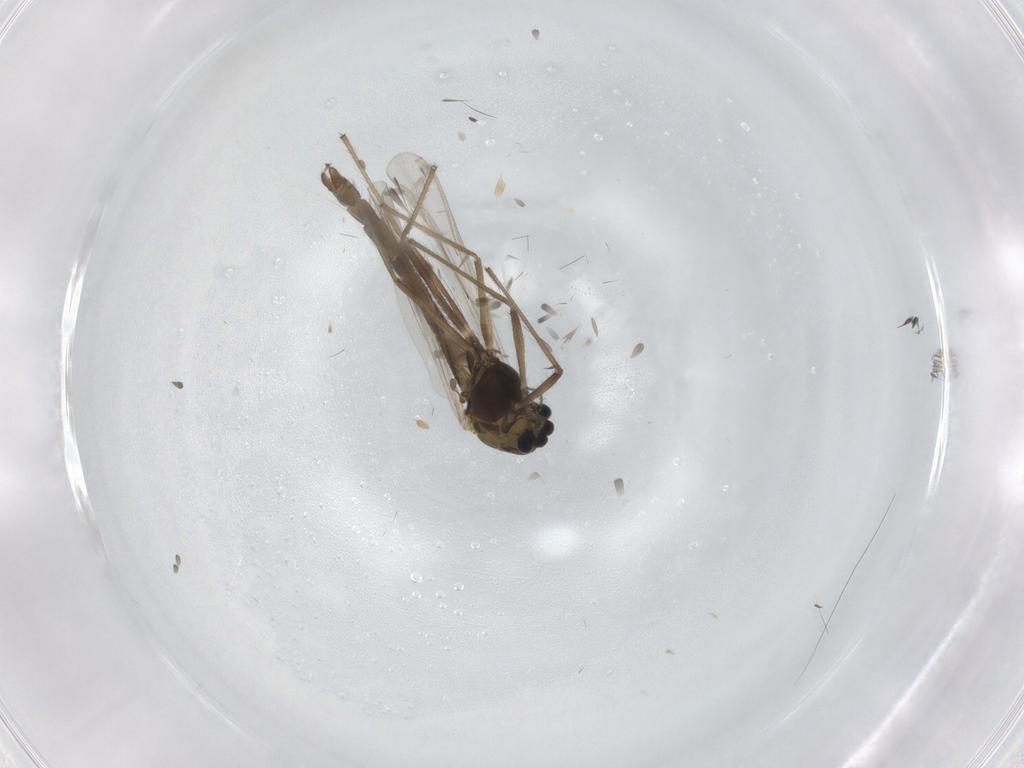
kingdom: Animalia
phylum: Arthropoda
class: Insecta
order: Diptera
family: Chironomidae
